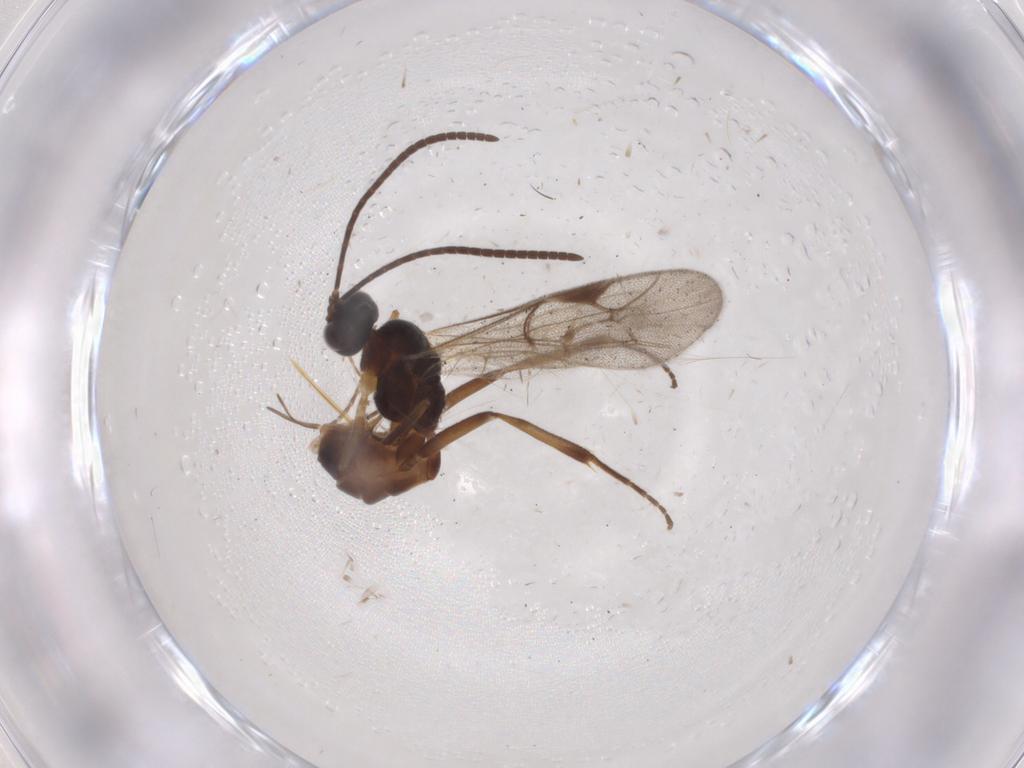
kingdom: Animalia
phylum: Arthropoda
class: Insecta
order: Hymenoptera
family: Ichneumonidae
